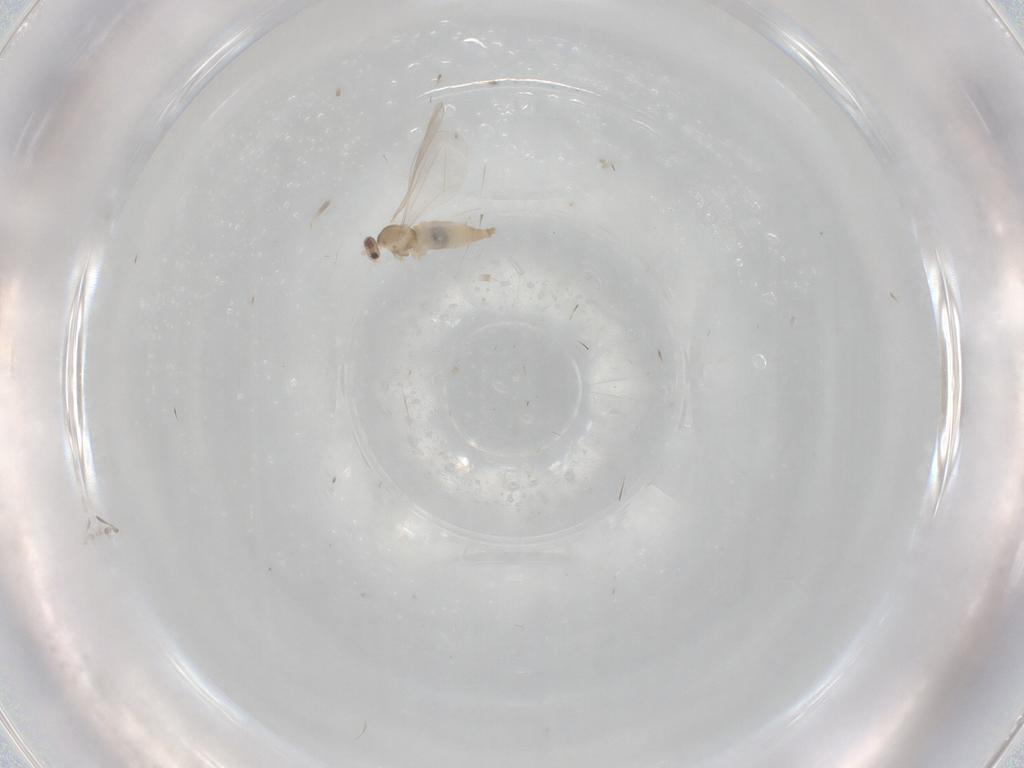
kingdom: Animalia
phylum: Arthropoda
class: Insecta
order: Diptera
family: Cecidomyiidae
